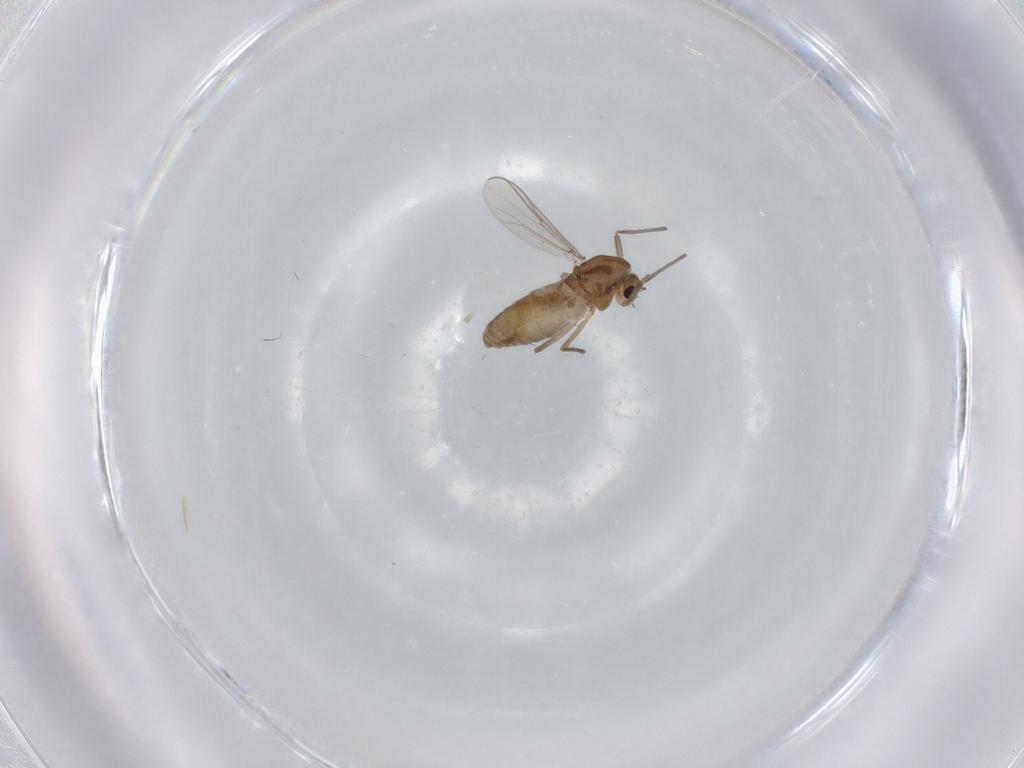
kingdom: Animalia
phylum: Arthropoda
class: Insecta
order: Diptera
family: Chironomidae
